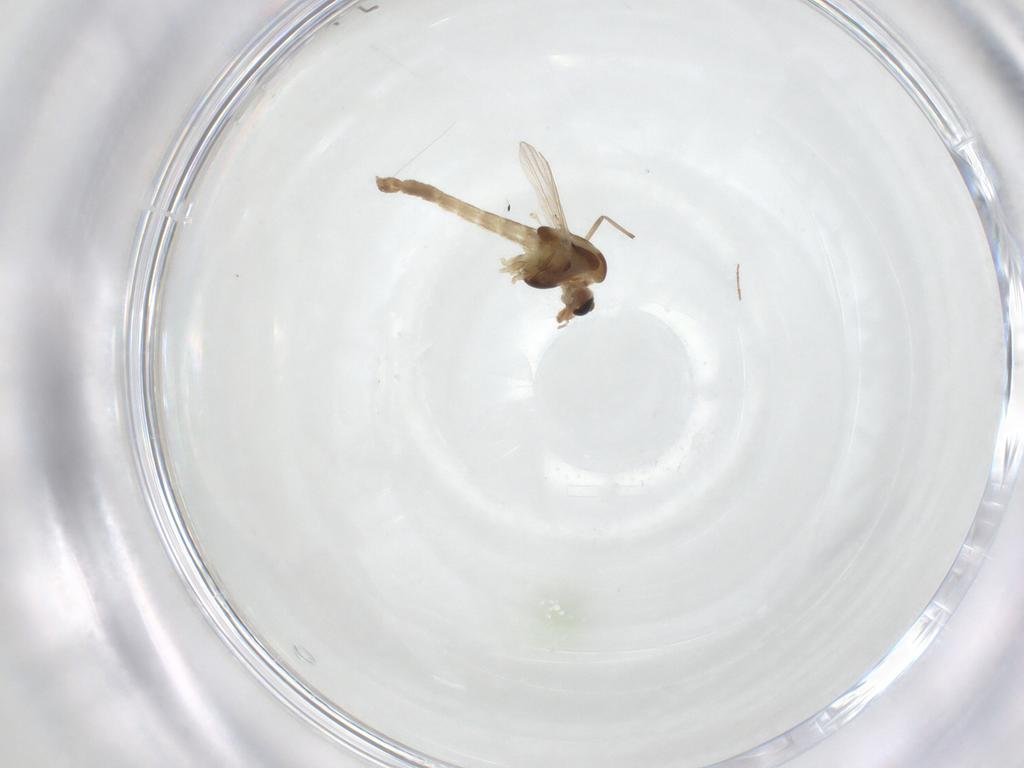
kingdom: Animalia
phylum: Arthropoda
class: Insecta
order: Diptera
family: Chironomidae
